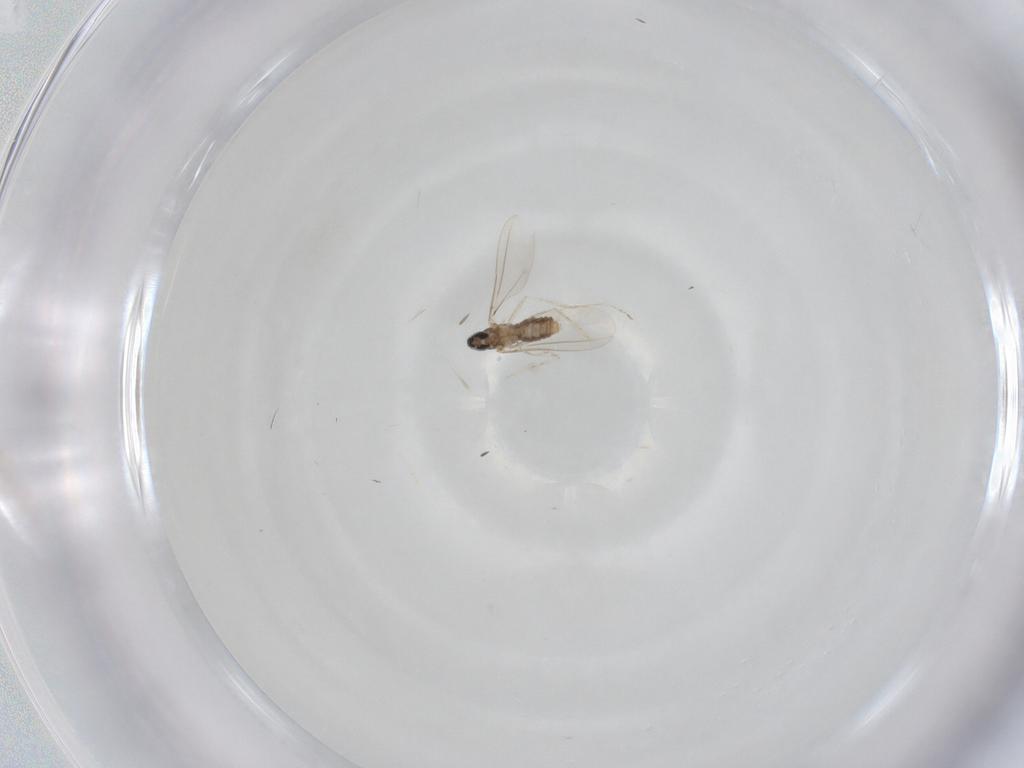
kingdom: Animalia
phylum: Arthropoda
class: Insecta
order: Diptera
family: Cecidomyiidae
